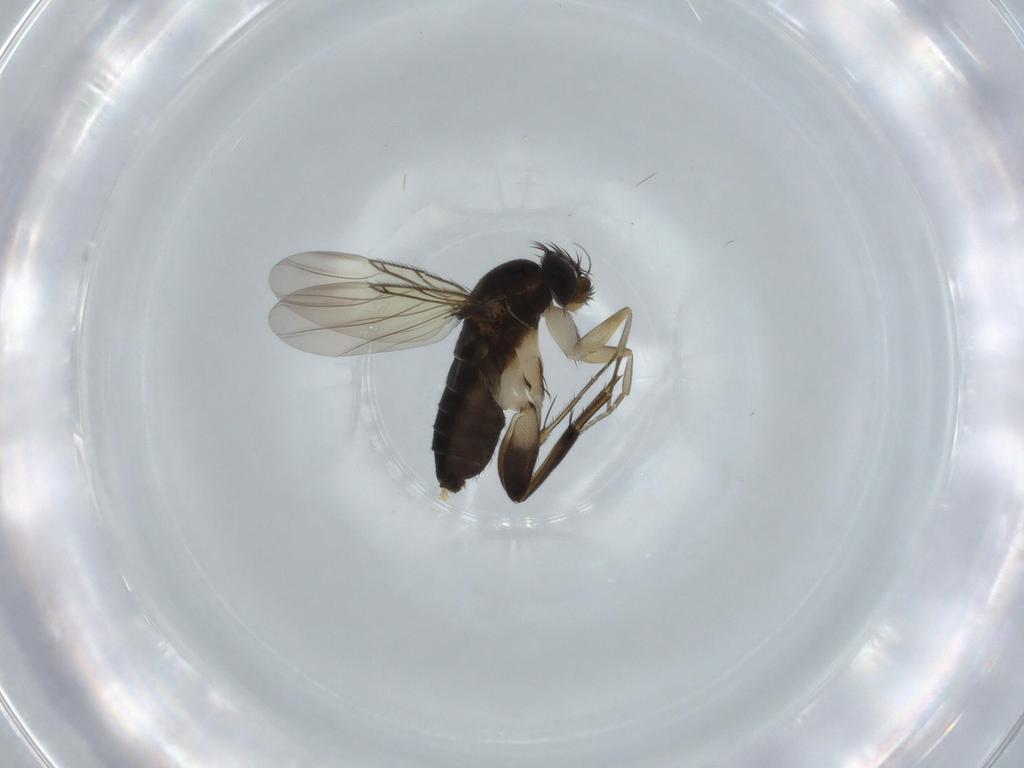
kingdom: Animalia
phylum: Arthropoda
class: Insecta
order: Diptera
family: Phoridae
